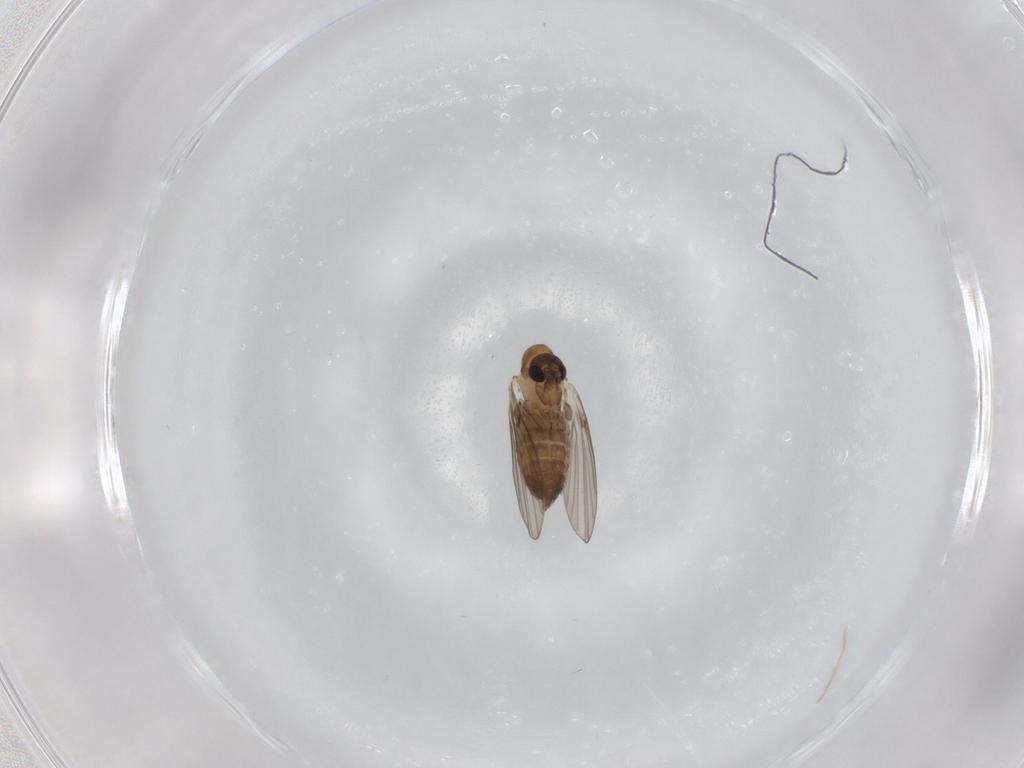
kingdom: Animalia
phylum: Arthropoda
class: Insecta
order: Diptera
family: Psychodidae
